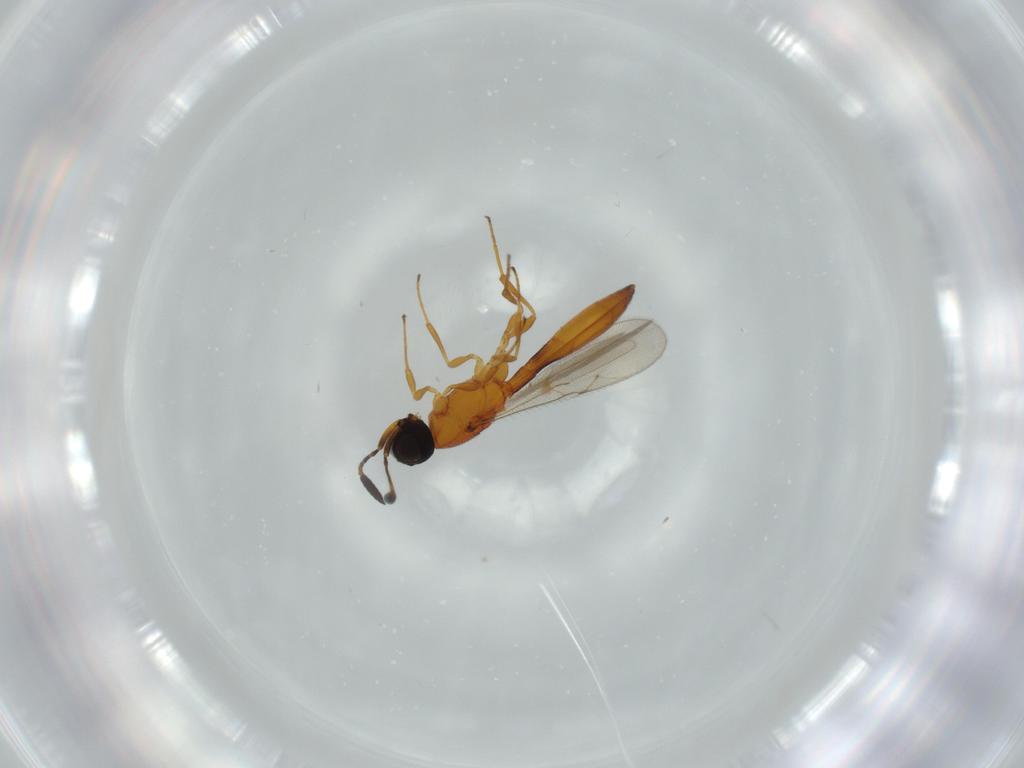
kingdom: Animalia
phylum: Arthropoda
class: Insecta
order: Hymenoptera
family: Scelionidae
